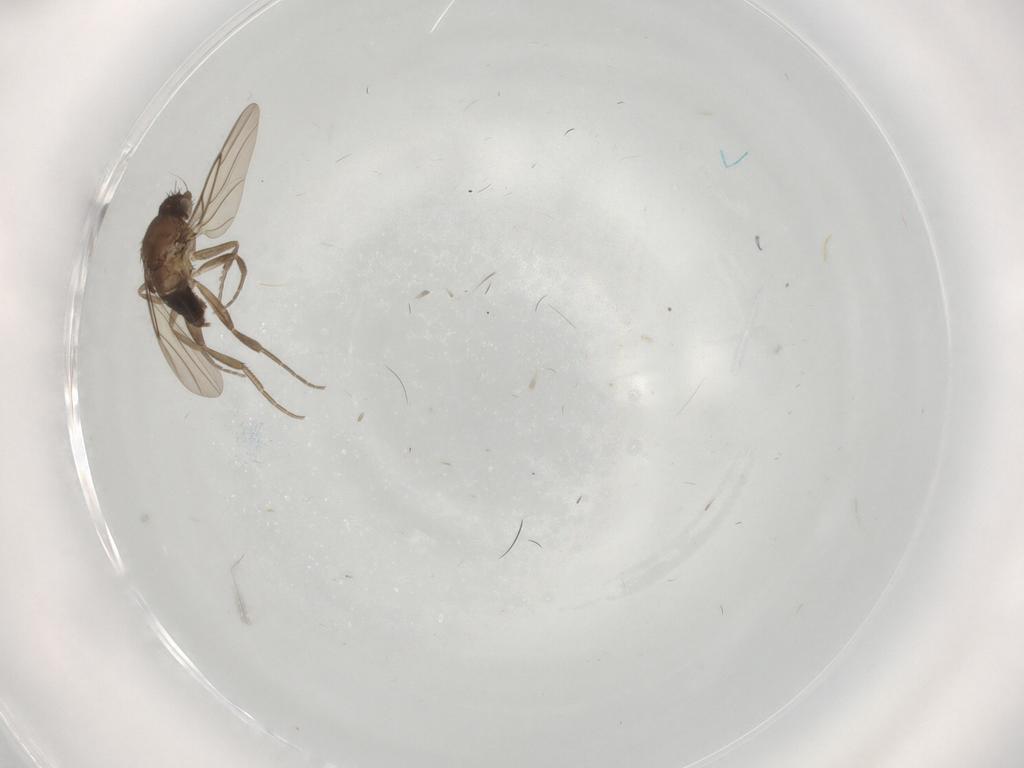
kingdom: Animalia
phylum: Arthropoda
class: Insecta
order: Diptera
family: Phoridae
